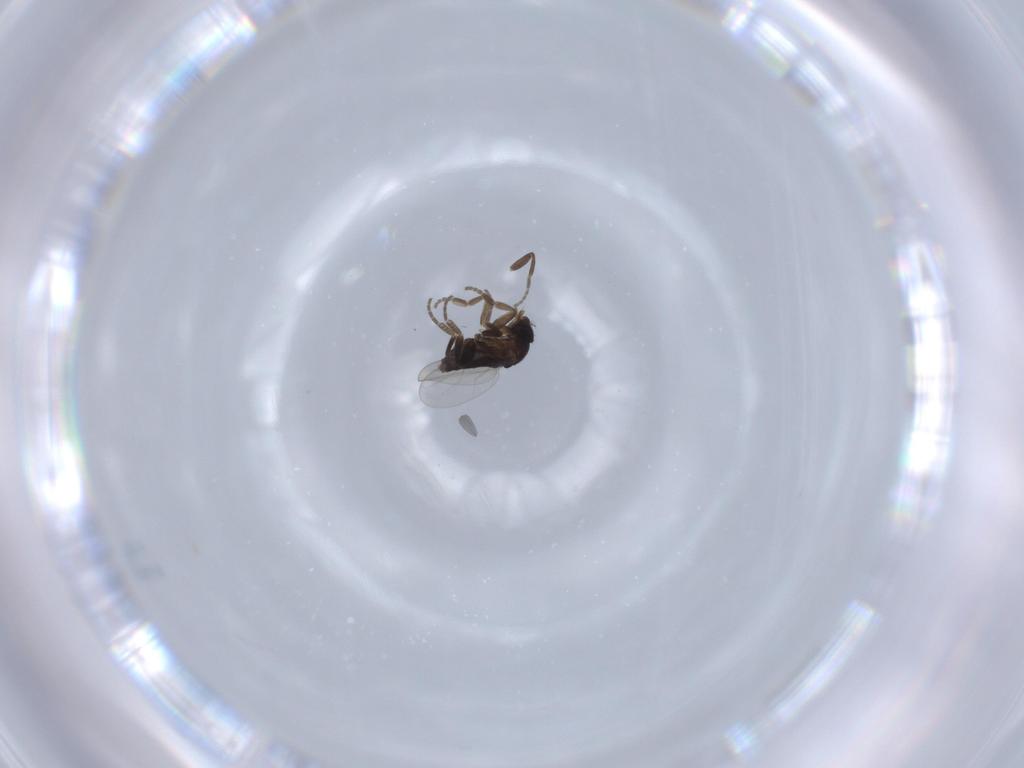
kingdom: Animalia
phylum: Arthropoda
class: Insecta
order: Diptera
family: Phoridae
